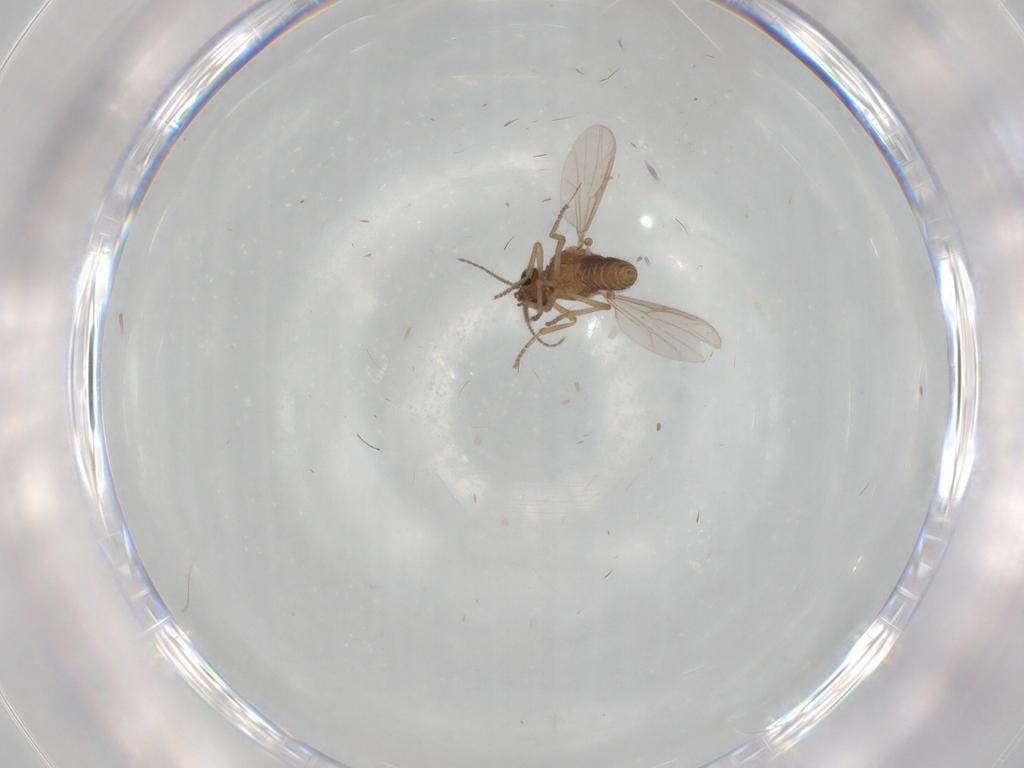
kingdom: Animalia
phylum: Arthropoda
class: Insecta
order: Diptera
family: Ceratopogonidae
